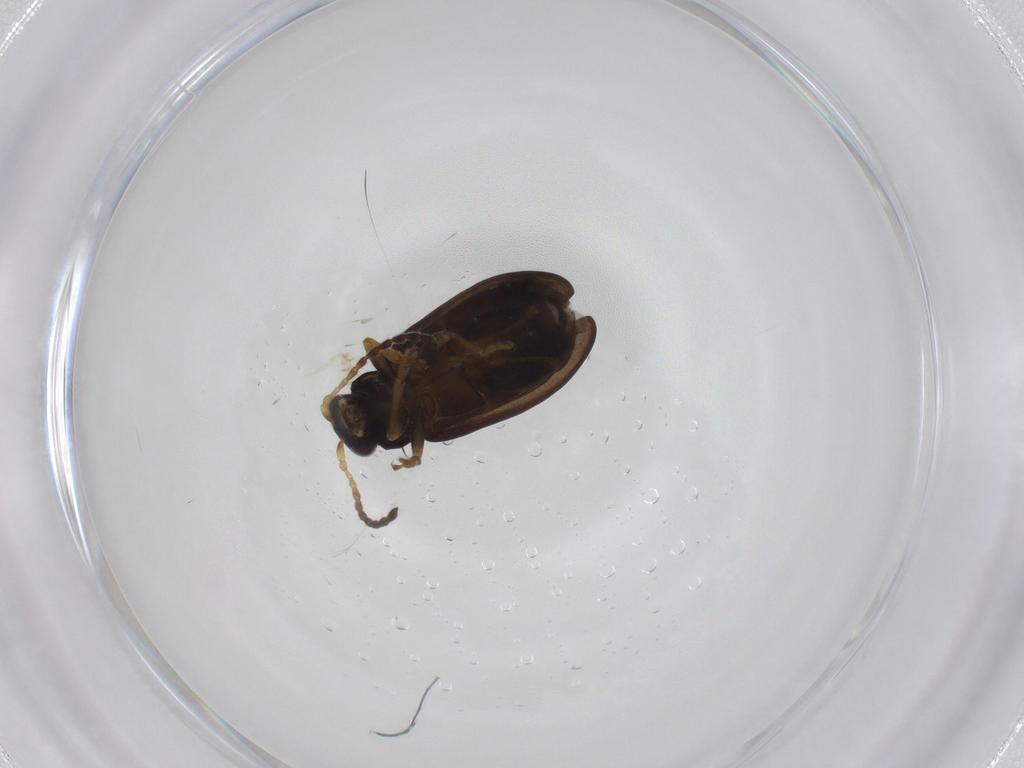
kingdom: Animalia
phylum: Arthropoda
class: Insecta
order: Coleoptera
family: Chrysomelidae
